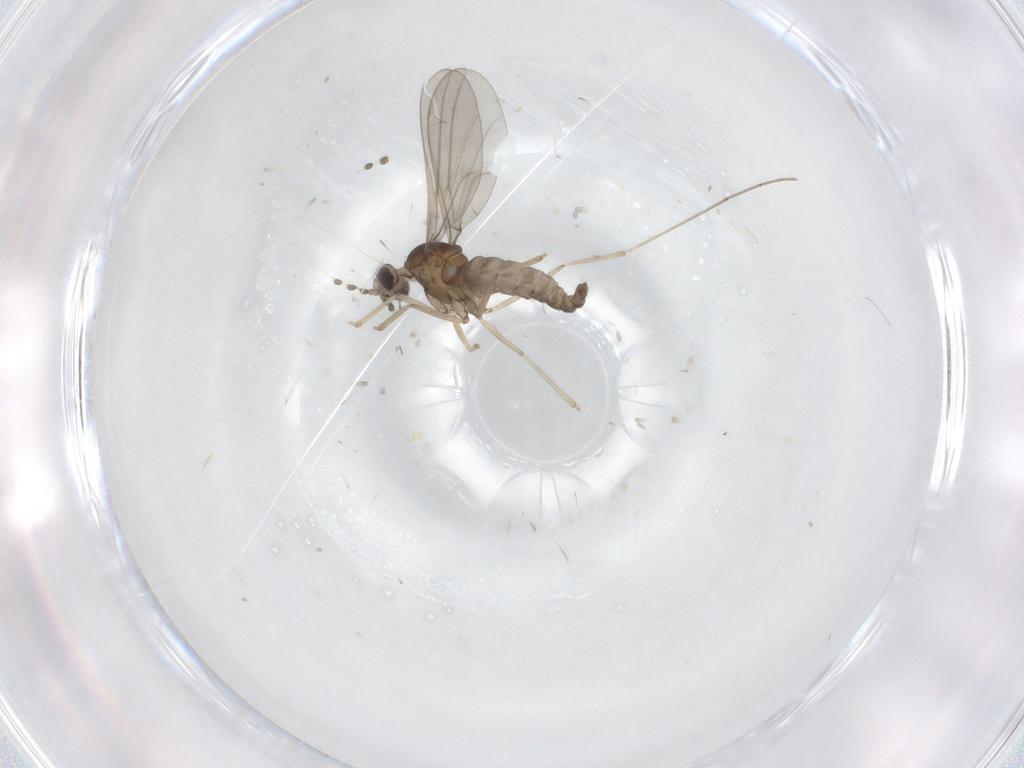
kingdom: Animalia
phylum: Arthropoda
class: Insecta
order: Diptera
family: Cecidomyiidae
